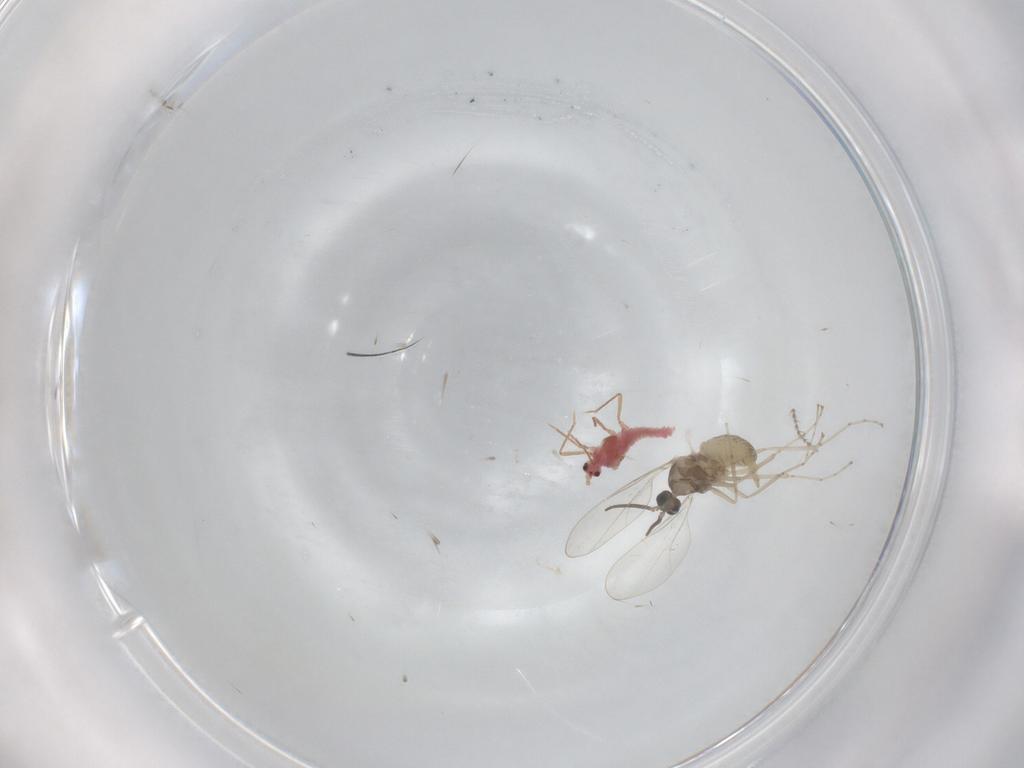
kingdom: Animalia
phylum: Arthropoda
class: Insecta
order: Diptera
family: Cecidomyiidae
